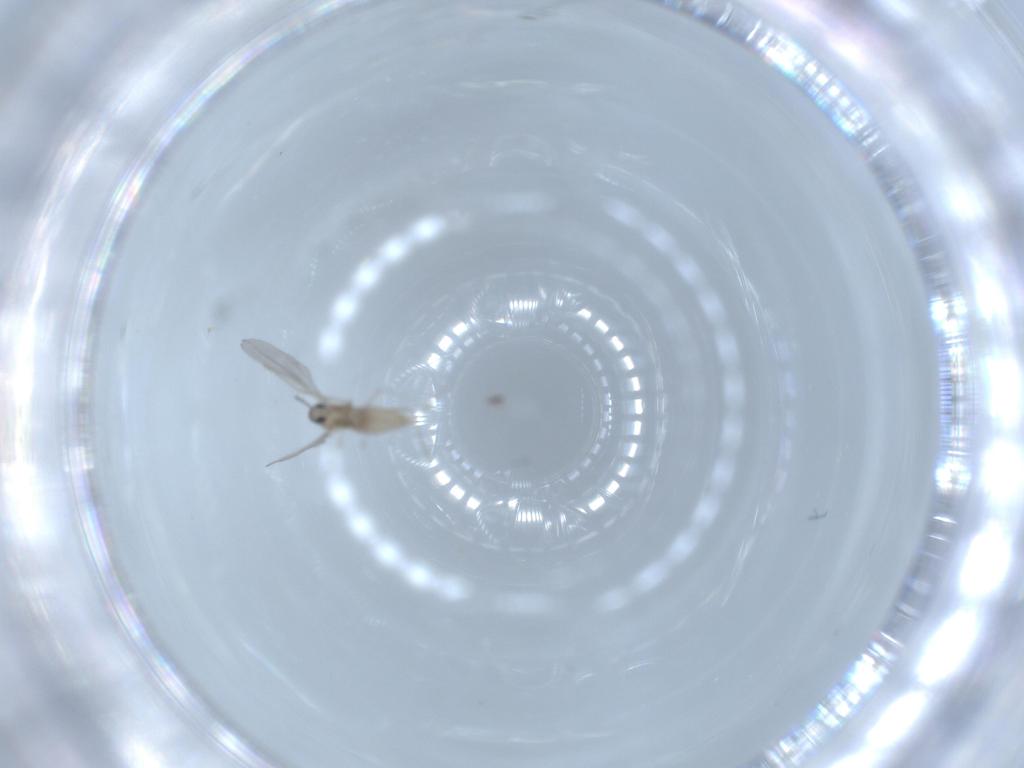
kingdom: Animalia
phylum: Arthropoda
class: Insecta
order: Diptera
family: Cecidomyiidae
